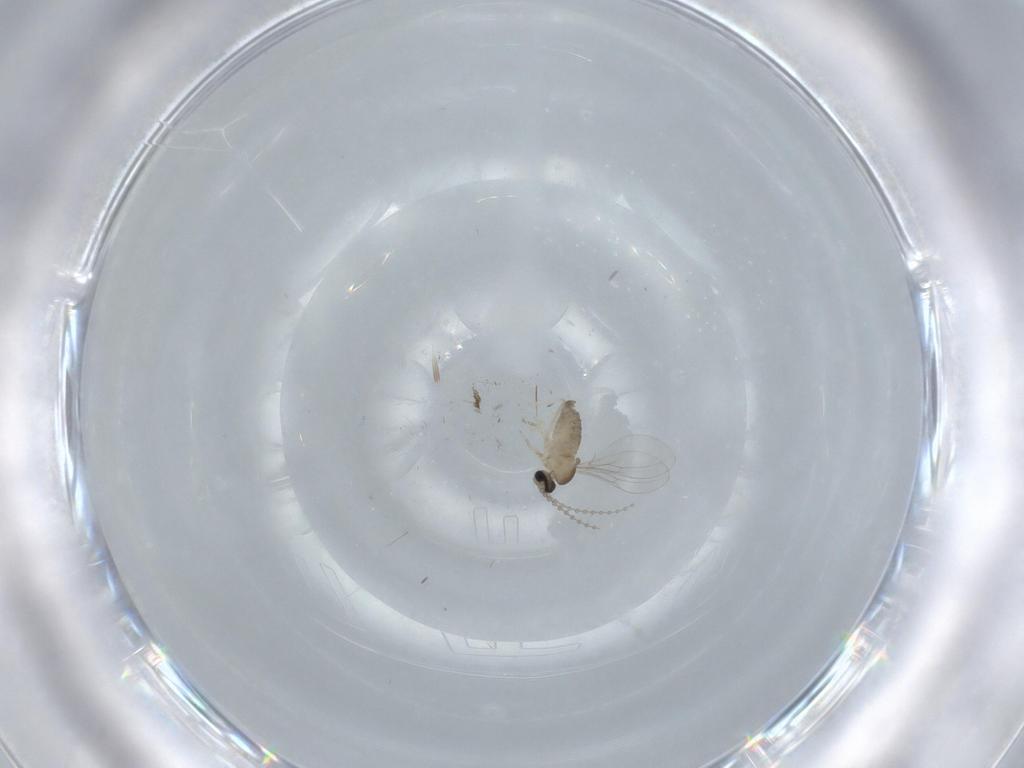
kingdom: Animalia
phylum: Arthropoda
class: Insecta
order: Diptera
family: Cecidomyiidae
